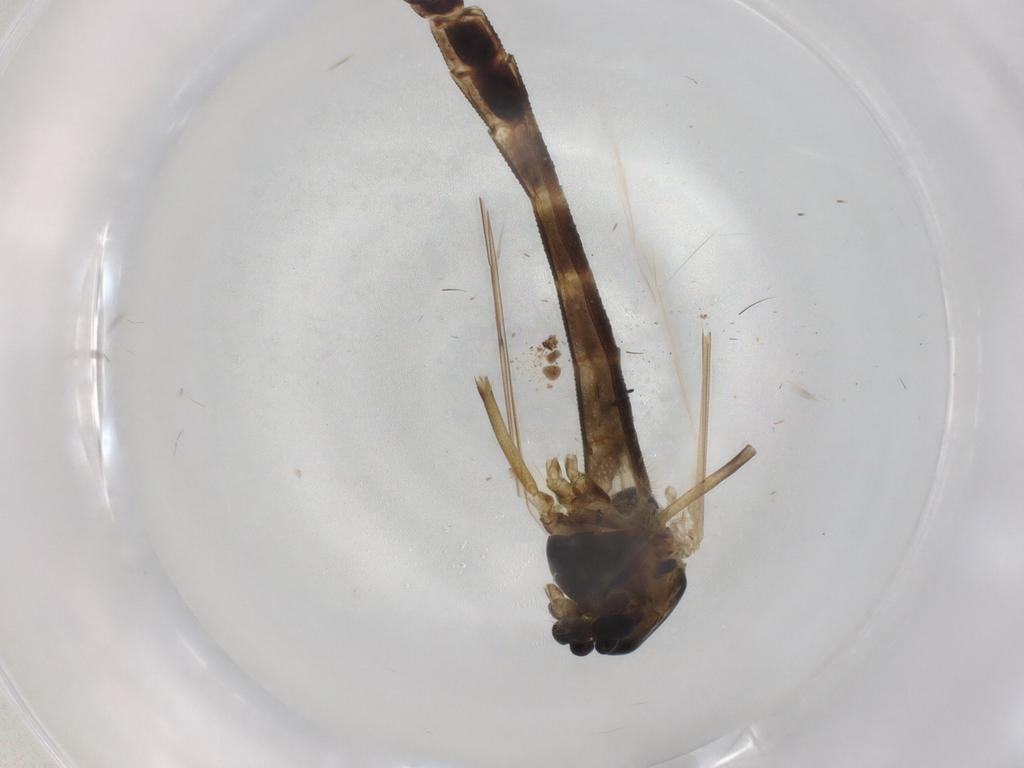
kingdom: Animalia
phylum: Arthropoda
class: Insecta
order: Diptera
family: Chironomidae
